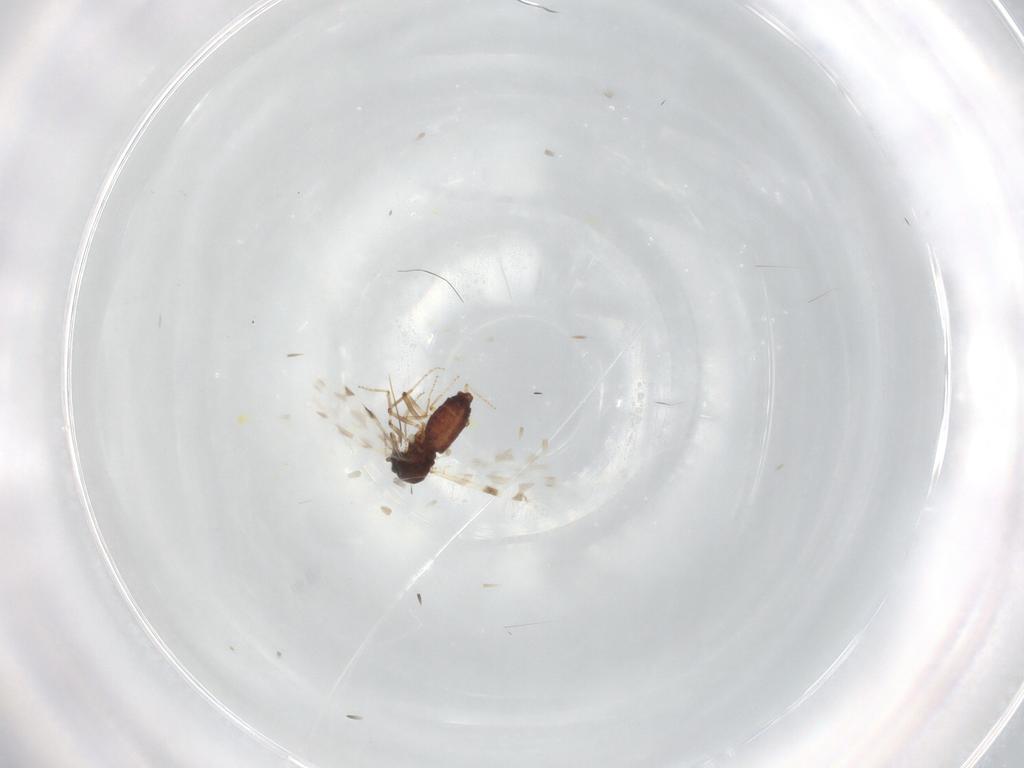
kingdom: Animalia
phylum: Arthropoda
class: Insecta
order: Diptera
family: Ceratopogonidae
